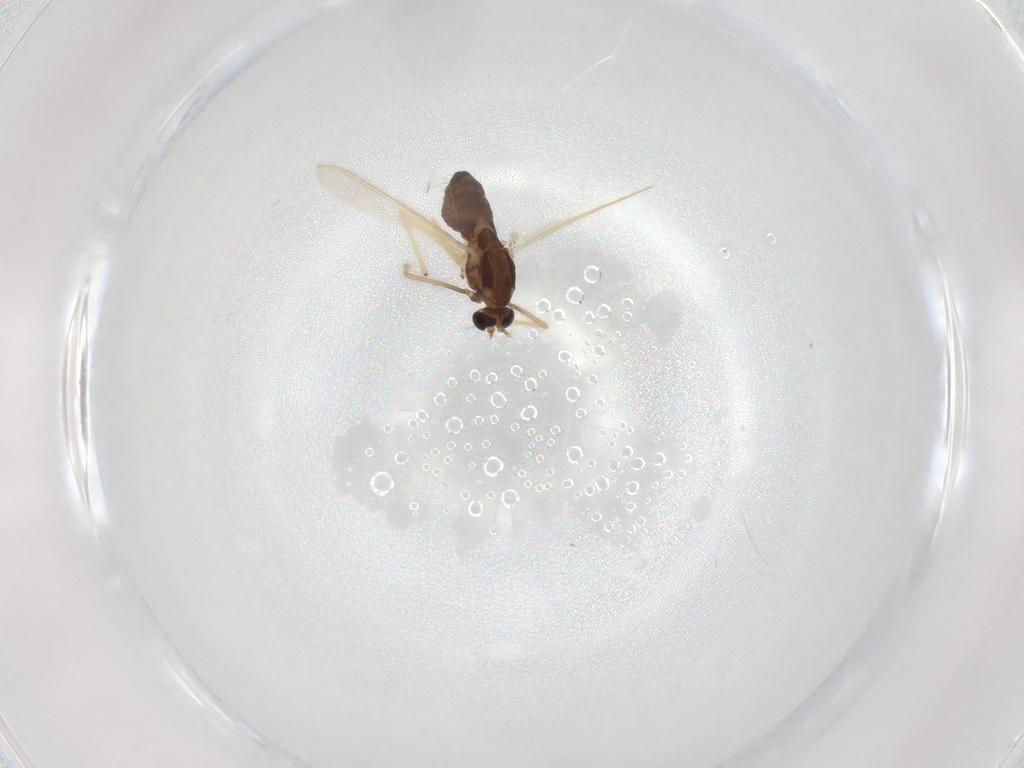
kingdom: Animalia
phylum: Arthropoda
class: Insecta
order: Diptera
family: Chironomidae
